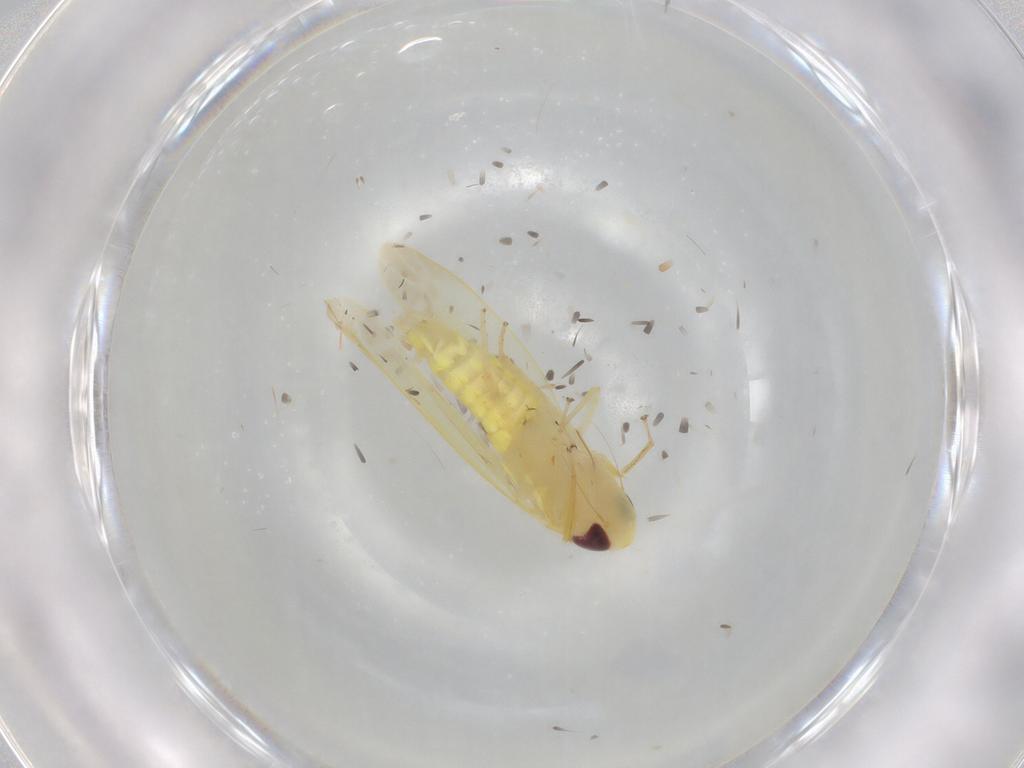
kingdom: Animalia
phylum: Arthropoda
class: Insecta
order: Hemiptera
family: Cicadellidae
